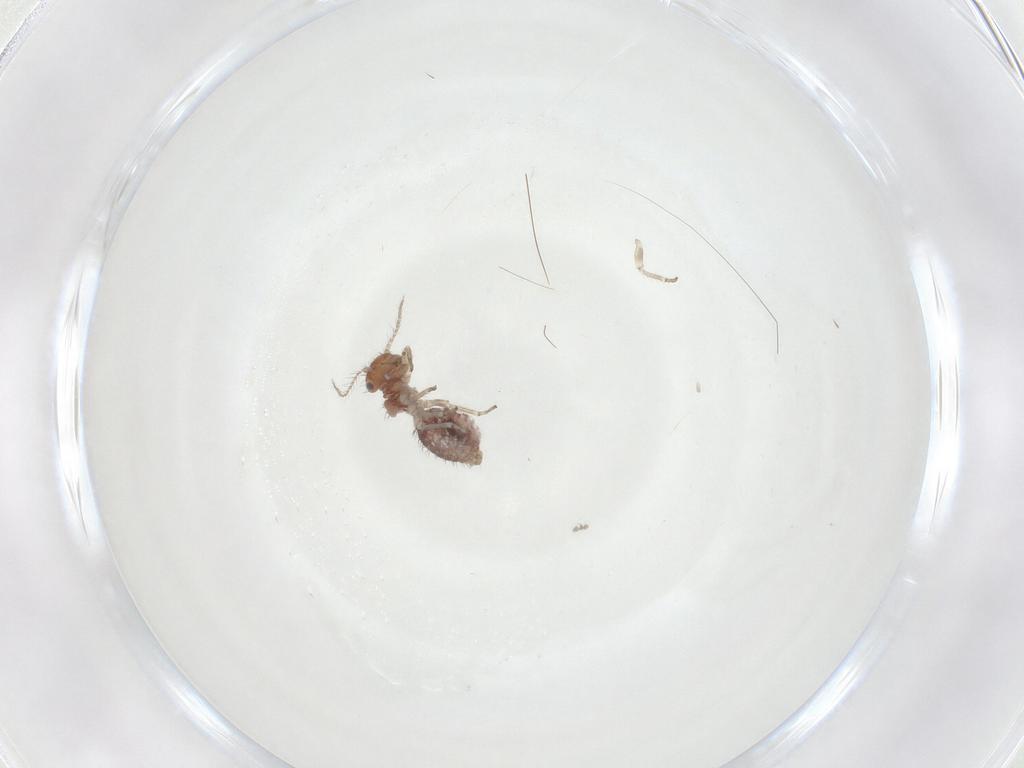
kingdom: Animalia
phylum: Arthropoda
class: Insecta
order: Psocodea
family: Pseudocaeciliidae
